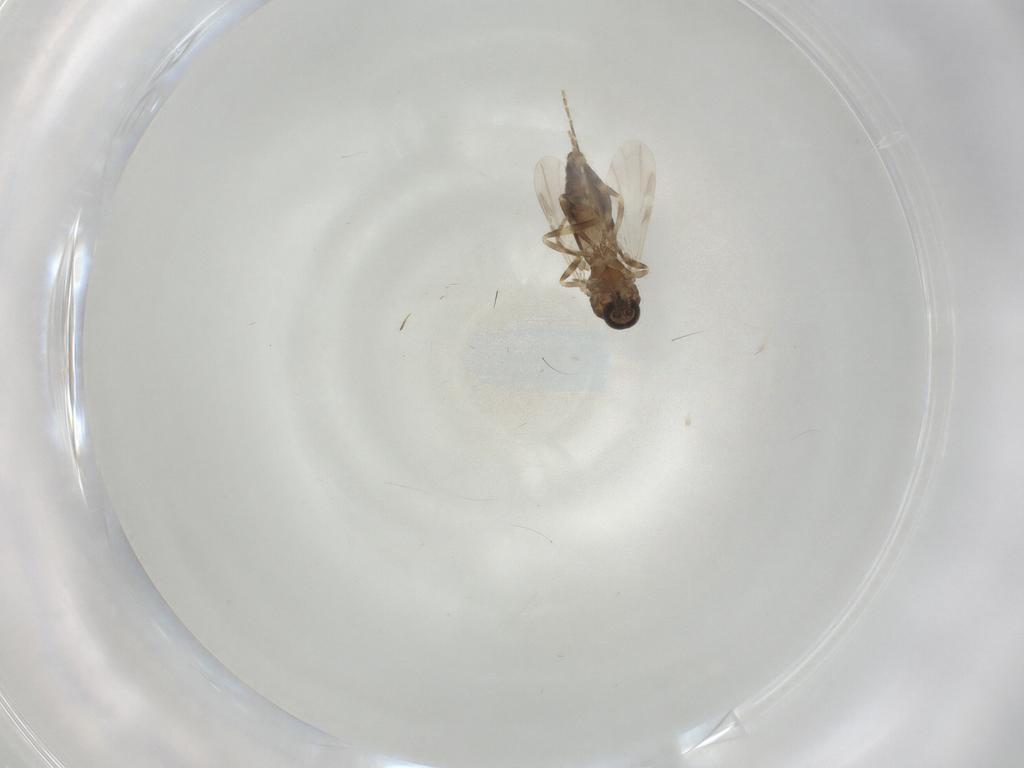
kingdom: Animalia
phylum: Arthropoda
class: Insecta
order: Diptera
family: Ceratopogonidae
